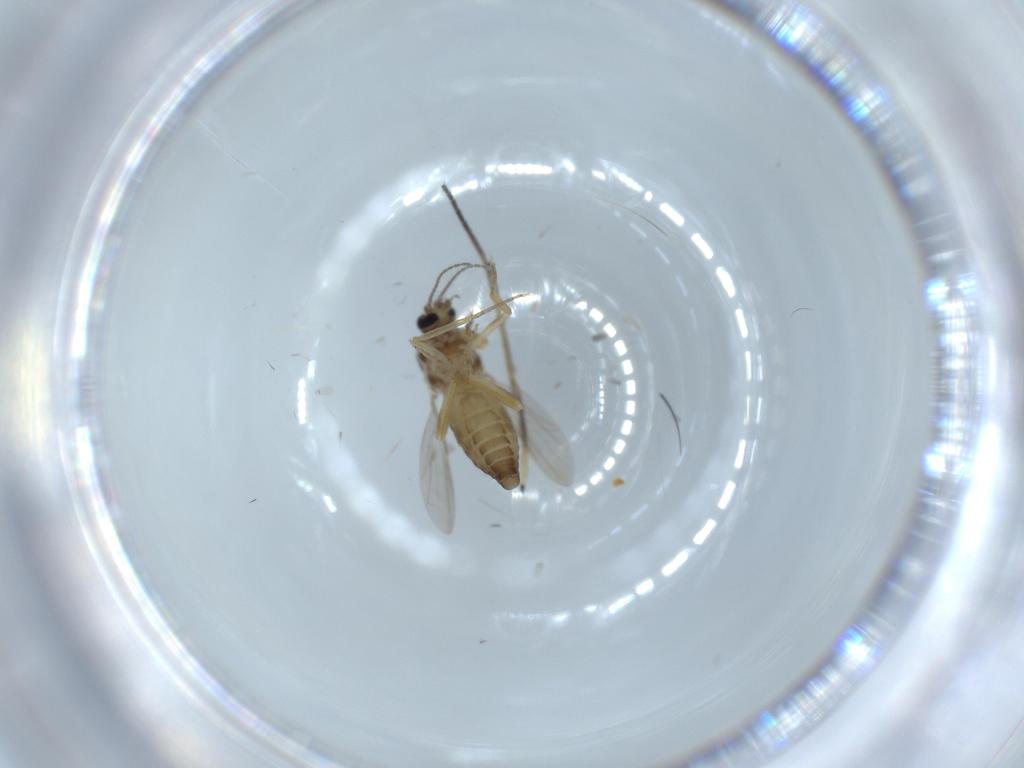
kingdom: Animalia
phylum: Arthropoda
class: Insecta
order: Diptera
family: Ceratopogonidae
